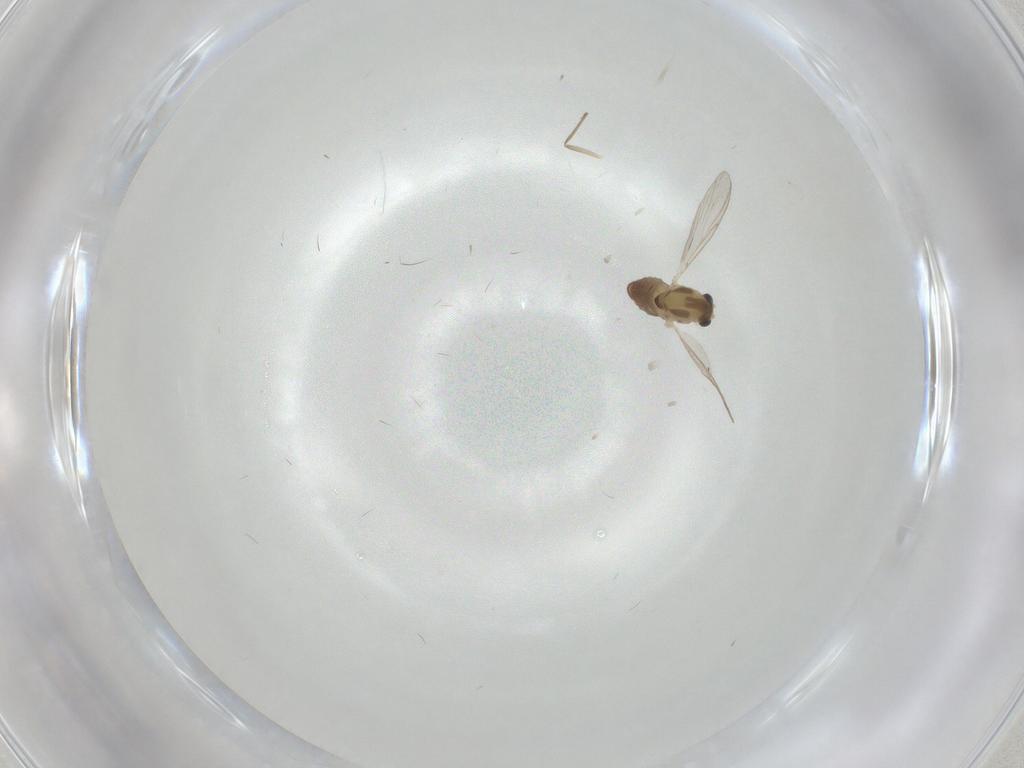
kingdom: Animalia
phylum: Arthropoda
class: Insecta
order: Diptera
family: Chironomidae
